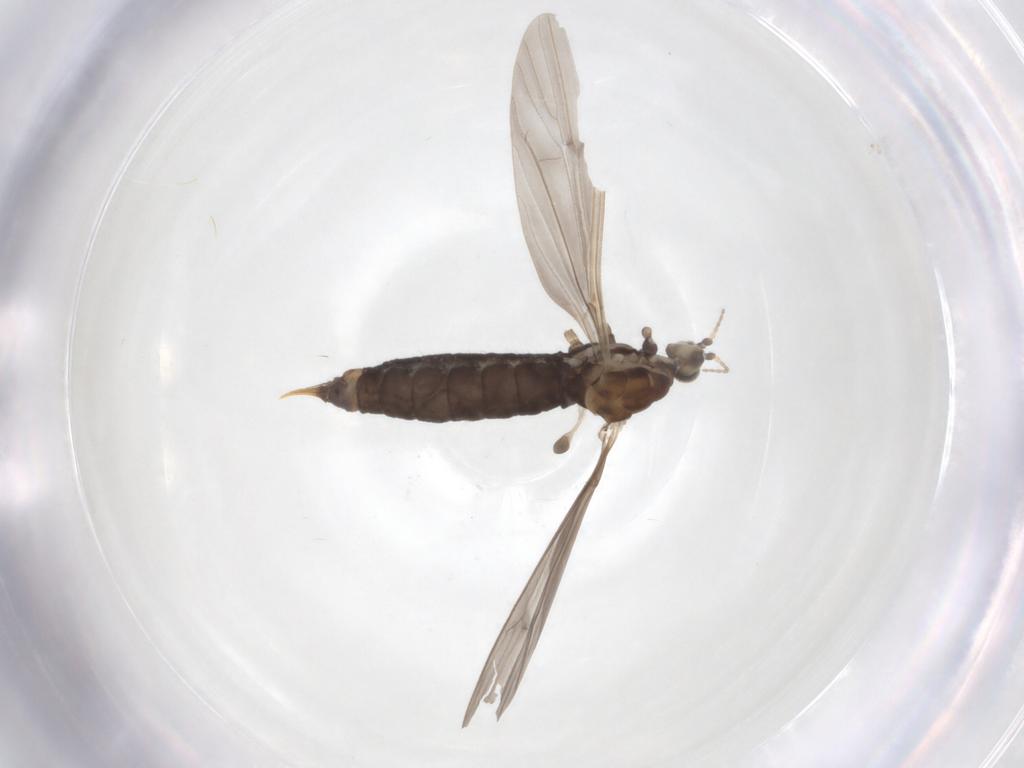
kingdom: Animalia
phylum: Arthropoda
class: Insecta
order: Diptera
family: Limoniidae
